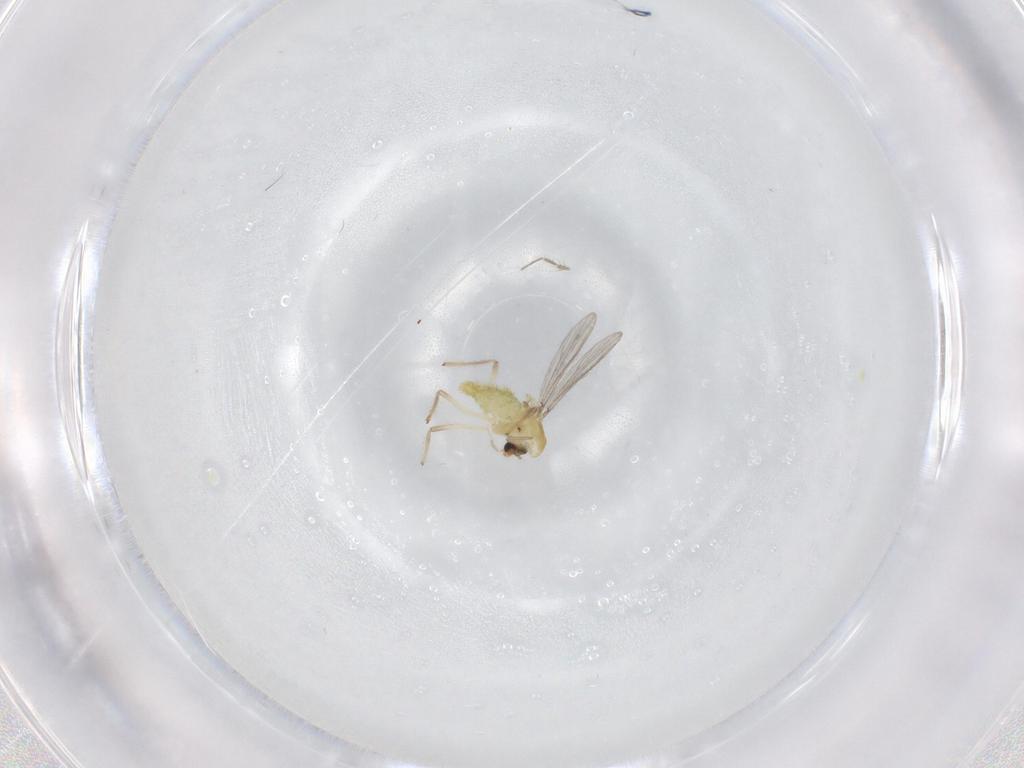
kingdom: Animalia
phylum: Arthropoda
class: Insecta
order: Diptera
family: Chironomidae
